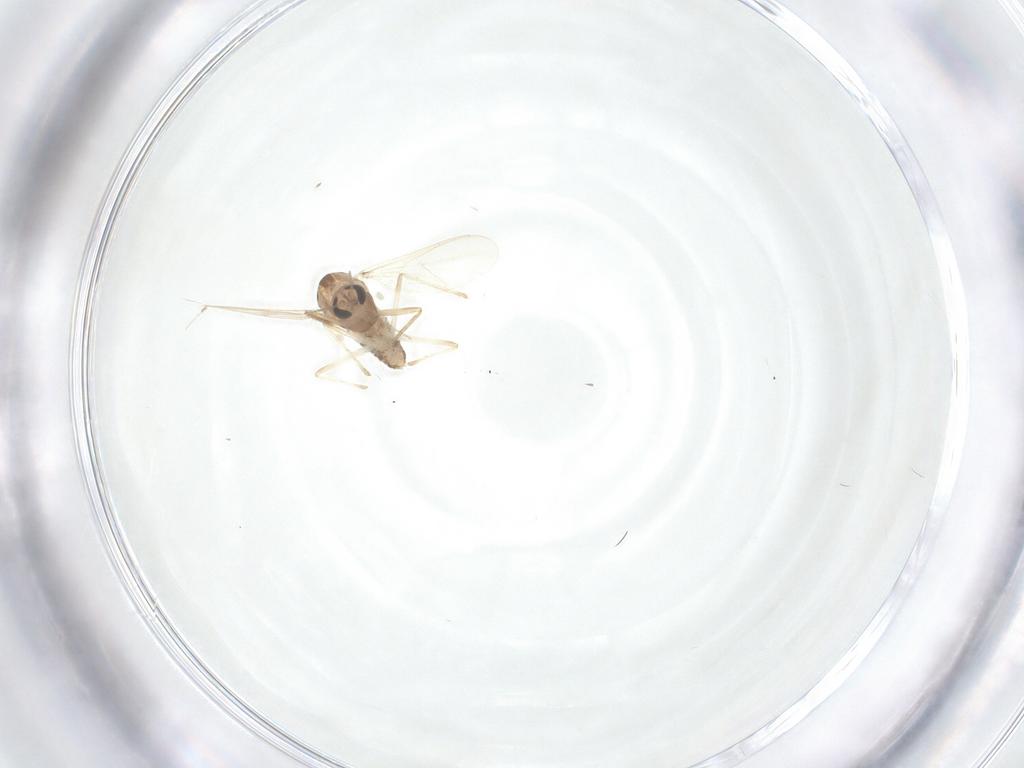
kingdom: Animalia
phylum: Arthropoda
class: Insecta
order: Diptera
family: Chironomidae
